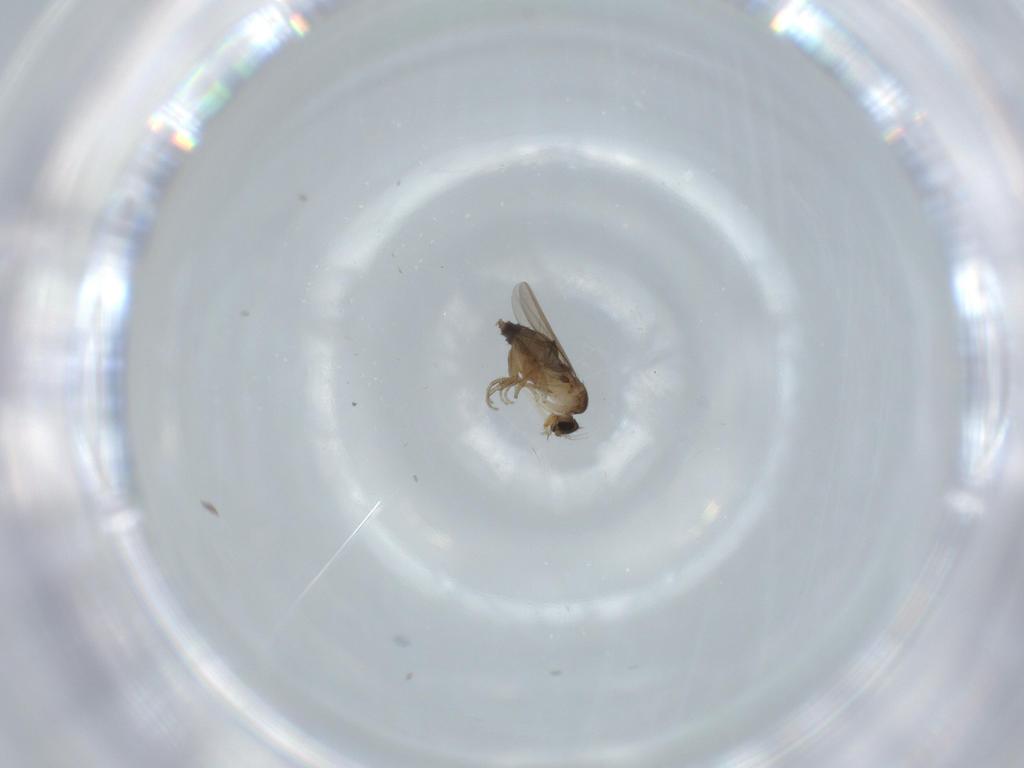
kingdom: Animalia
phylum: Arthropoda
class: Insecta
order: Diptera
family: Phoridae
